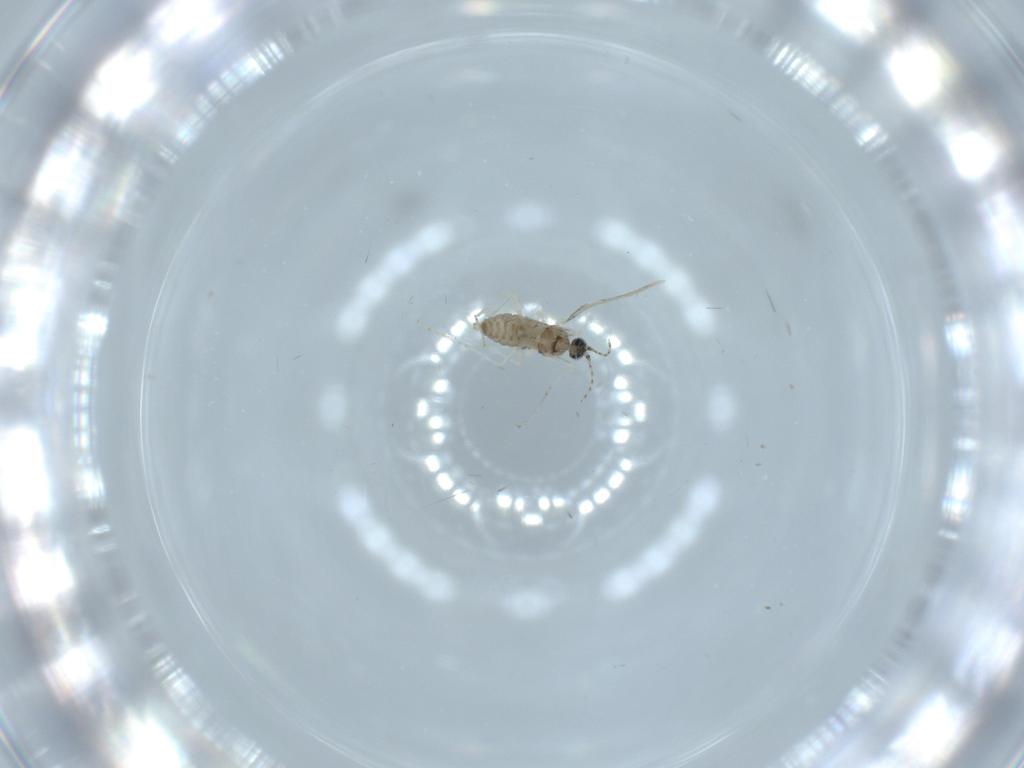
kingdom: Animalia
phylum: Arthropoda
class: Insecta
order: Diptera
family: Cecidomyiidae
